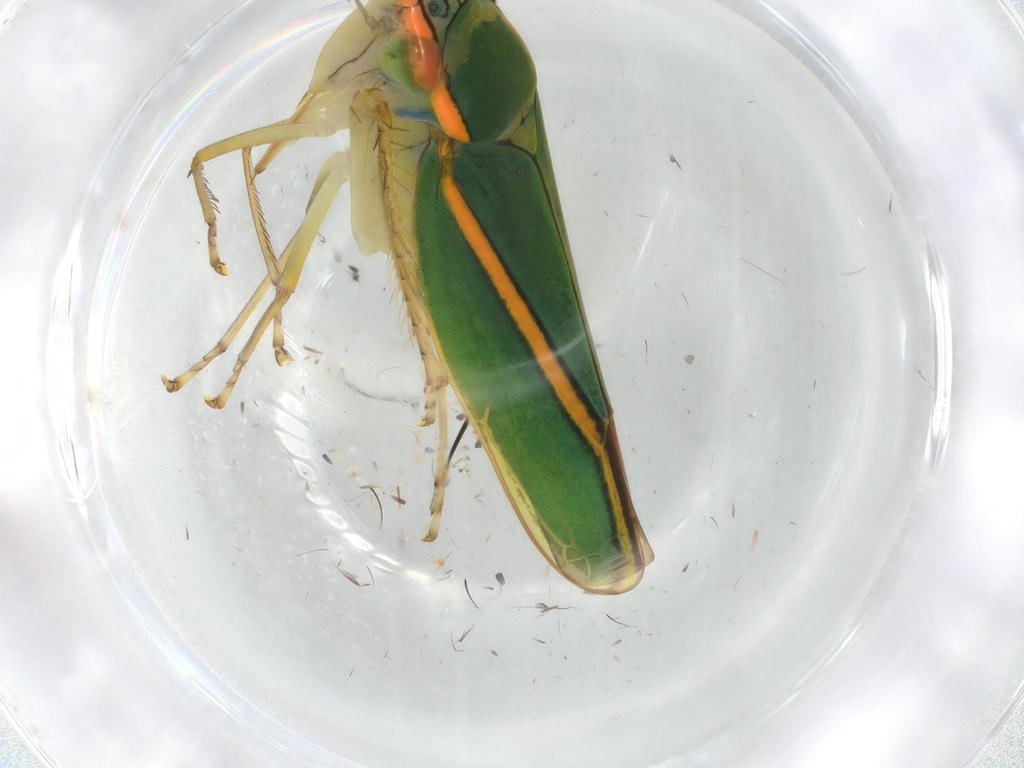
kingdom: Animalia
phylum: Arthropoda
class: Insecta
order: Hemiptera
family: Cicadellidae
